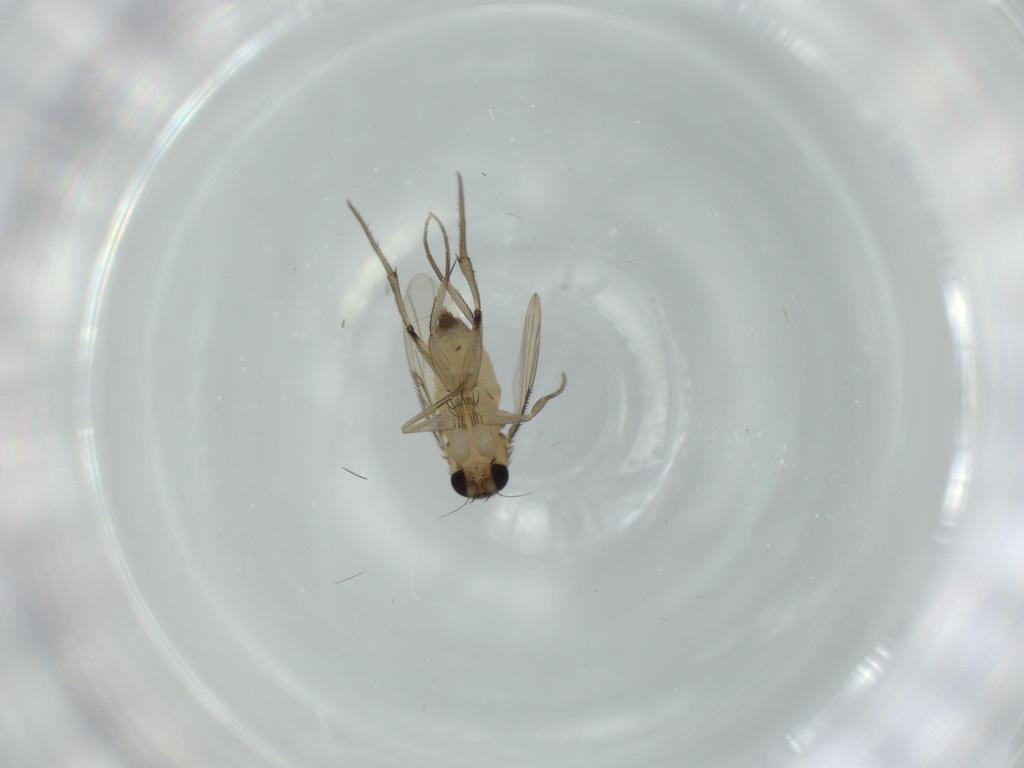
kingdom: Animalia
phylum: Arthropoda
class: Insecta
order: Diptera
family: Phoridae
